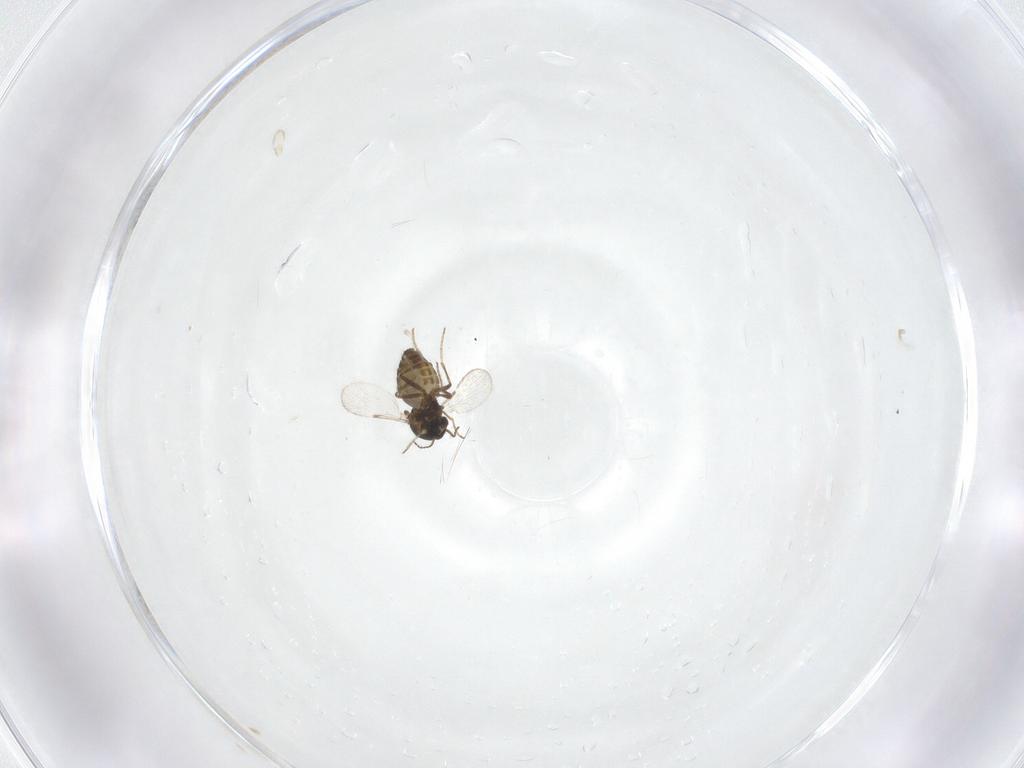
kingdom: Animalia
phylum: Arthropoda
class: Insecta
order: Diptera
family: Ceratopogonidae
